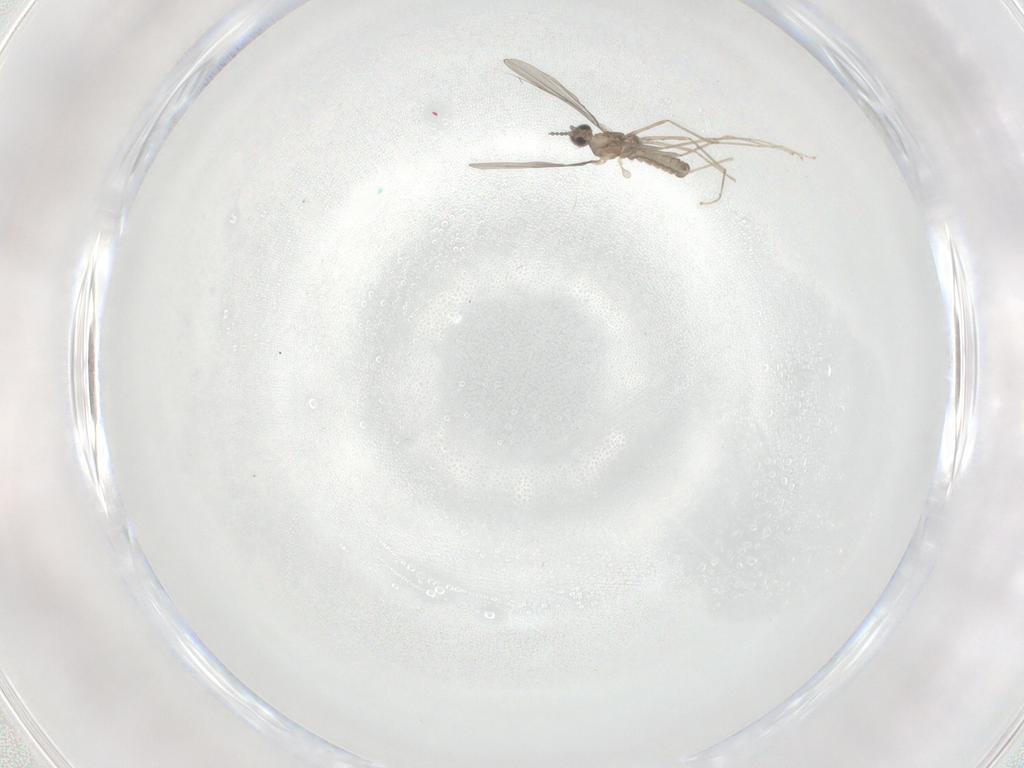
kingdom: Animalia
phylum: Arthropoda
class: Insecta
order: Diptera
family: Cecidomyiidae
